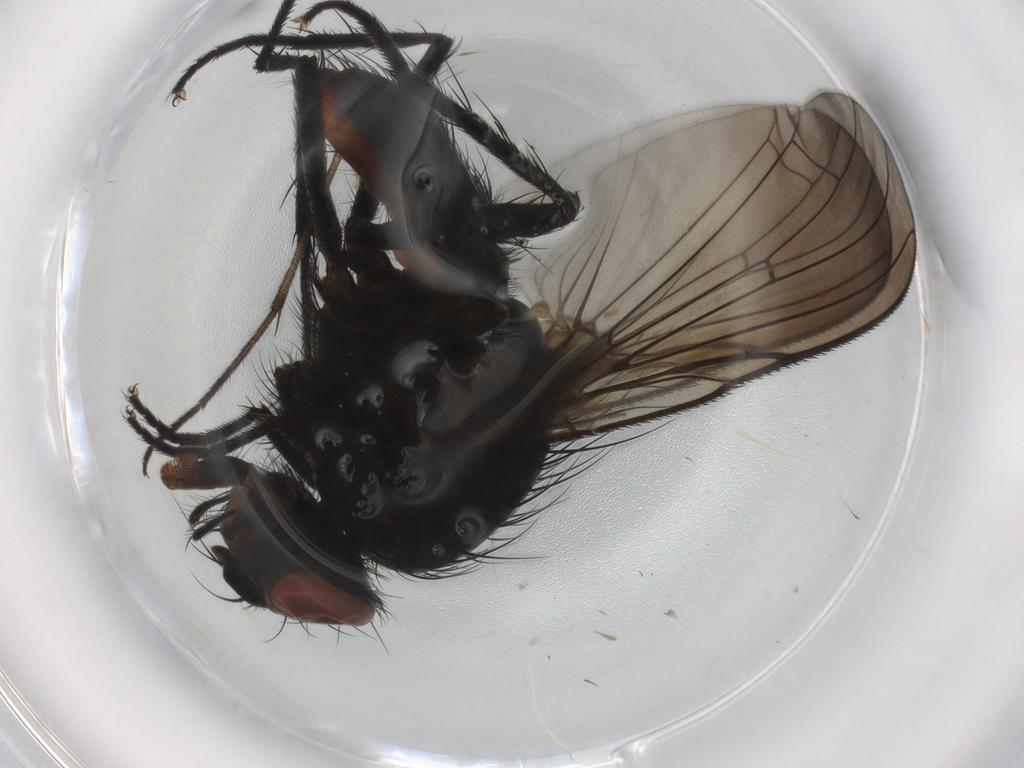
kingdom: Animalia
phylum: Arthropoda
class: Insecta
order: Diptera
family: Anthomyiidae
